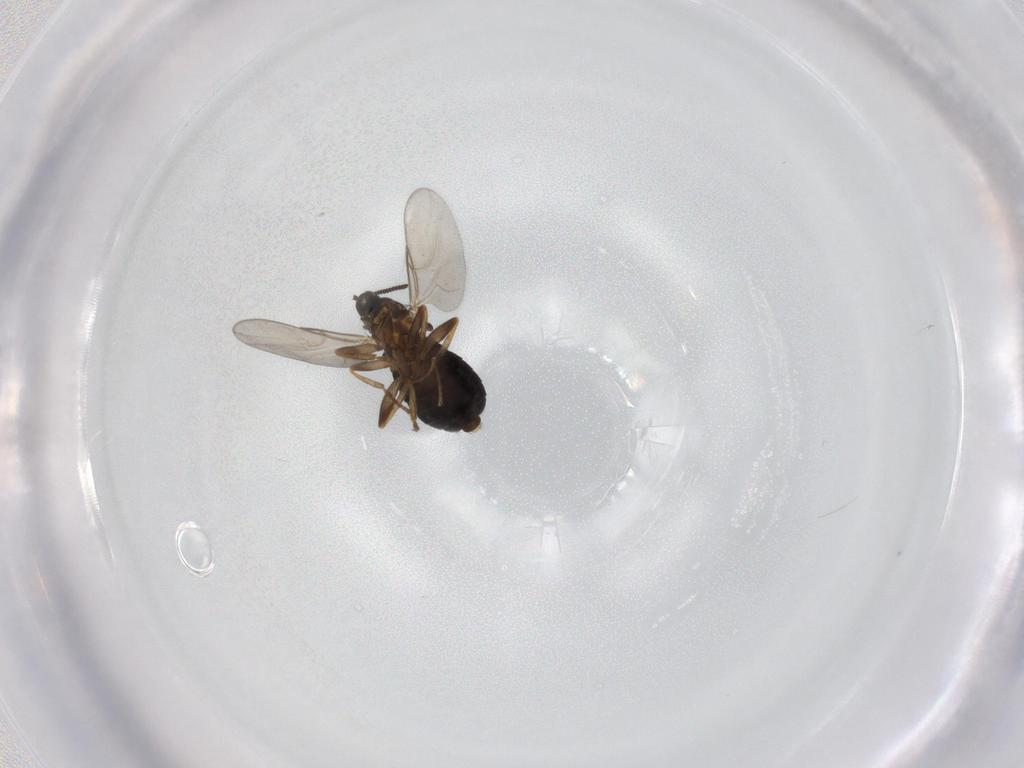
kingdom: Animalia
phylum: Arthropoda
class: Insecta
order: Diptera
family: Scatopsidae
